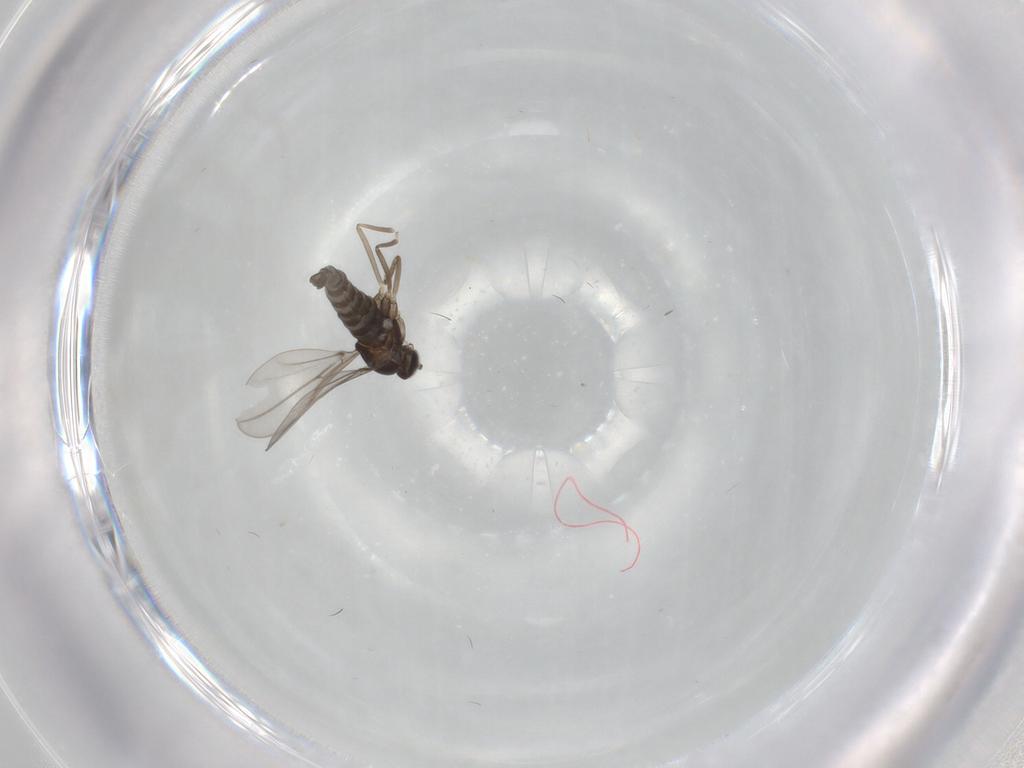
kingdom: Animalia
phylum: Arthropoda
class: Insecta
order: Diptera
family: Cecidomyiidae
